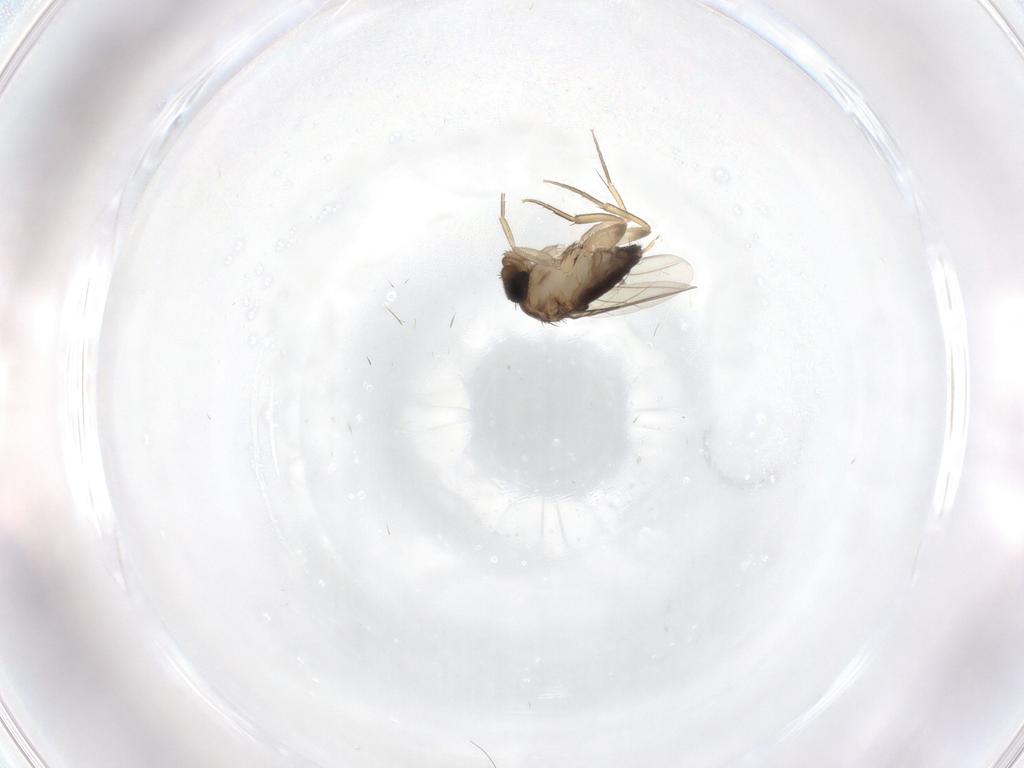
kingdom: Animalia
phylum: Arthropoda
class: Insecta
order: Diptera
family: Phoridae
